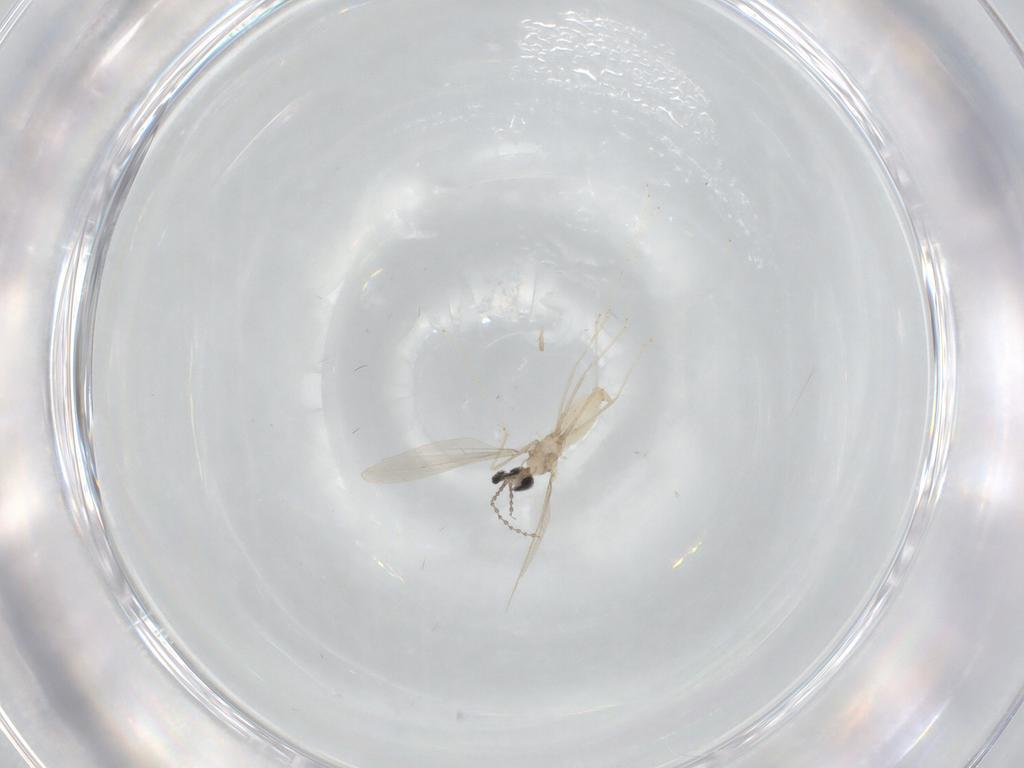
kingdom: Animalia
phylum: Arthropoda
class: Insecta
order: Diptera
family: Cecidomyiidae
